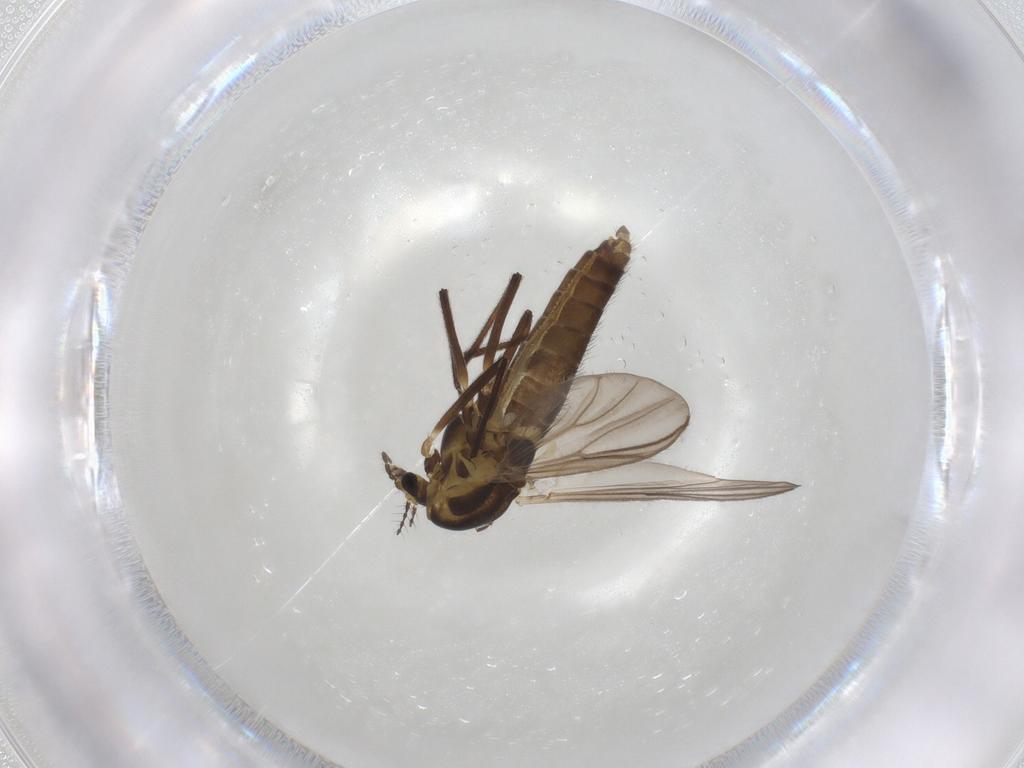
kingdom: Animalia
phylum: Arthropoda
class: Insecta
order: Diptera
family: Chironomidae
